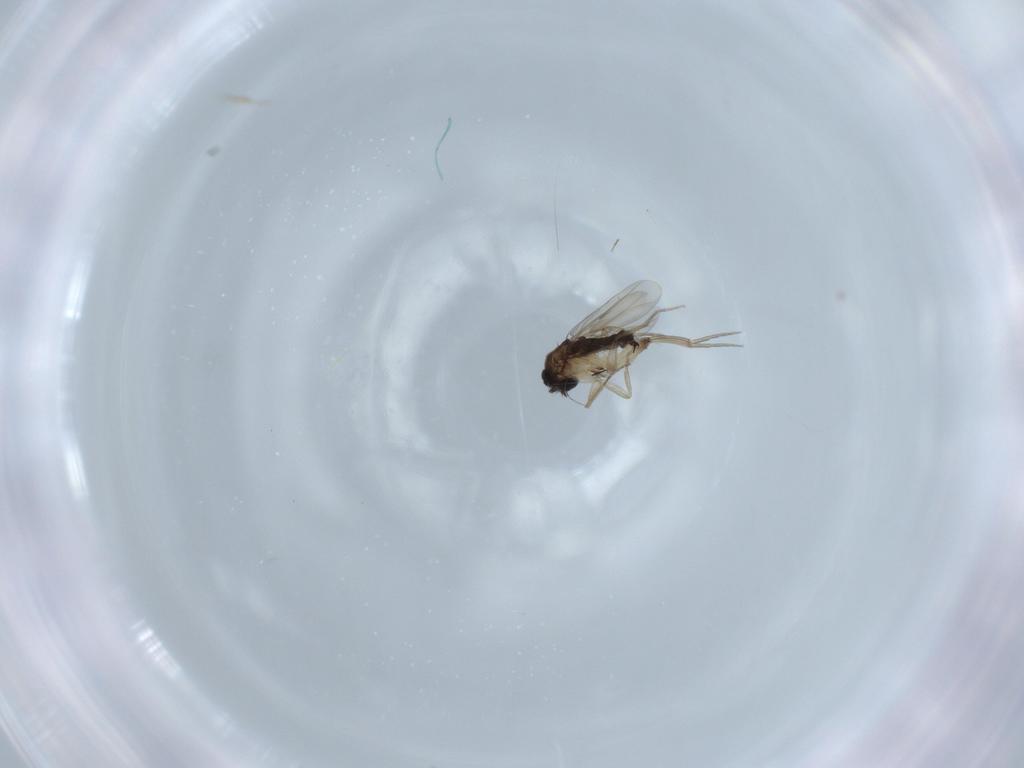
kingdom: Animalia
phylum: Arthropoda
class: Insecta
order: Diptera
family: Phoridae
